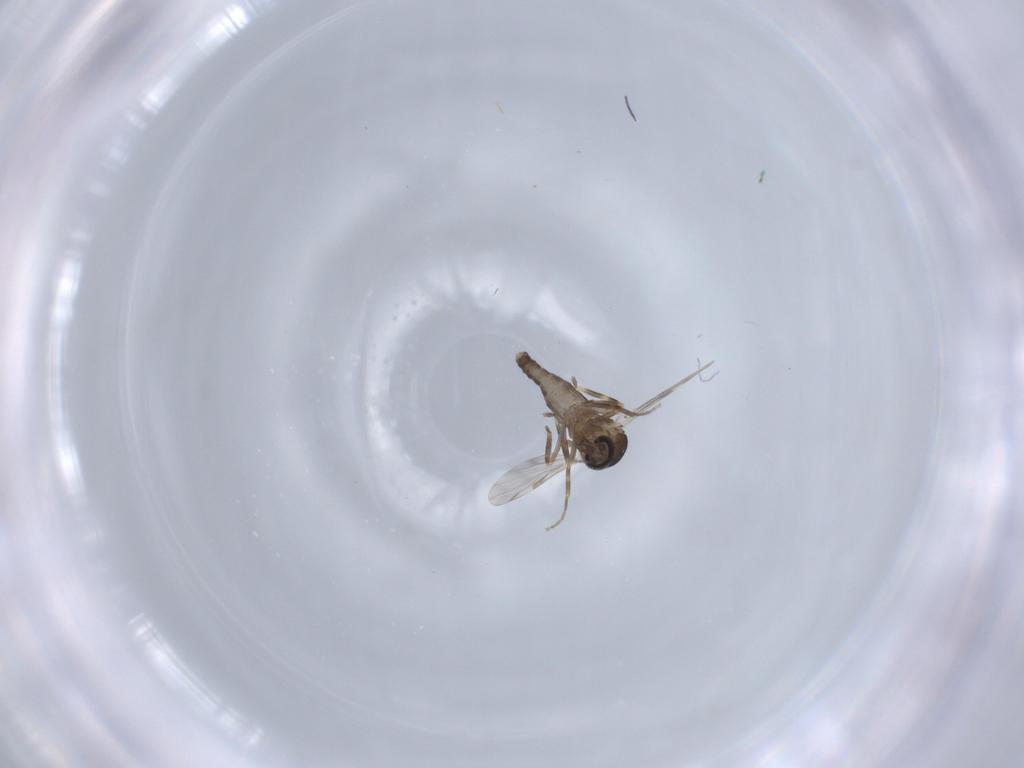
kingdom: Animalia
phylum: Arthropoda
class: Insecta
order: Diptera
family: Ceratopogonidae
